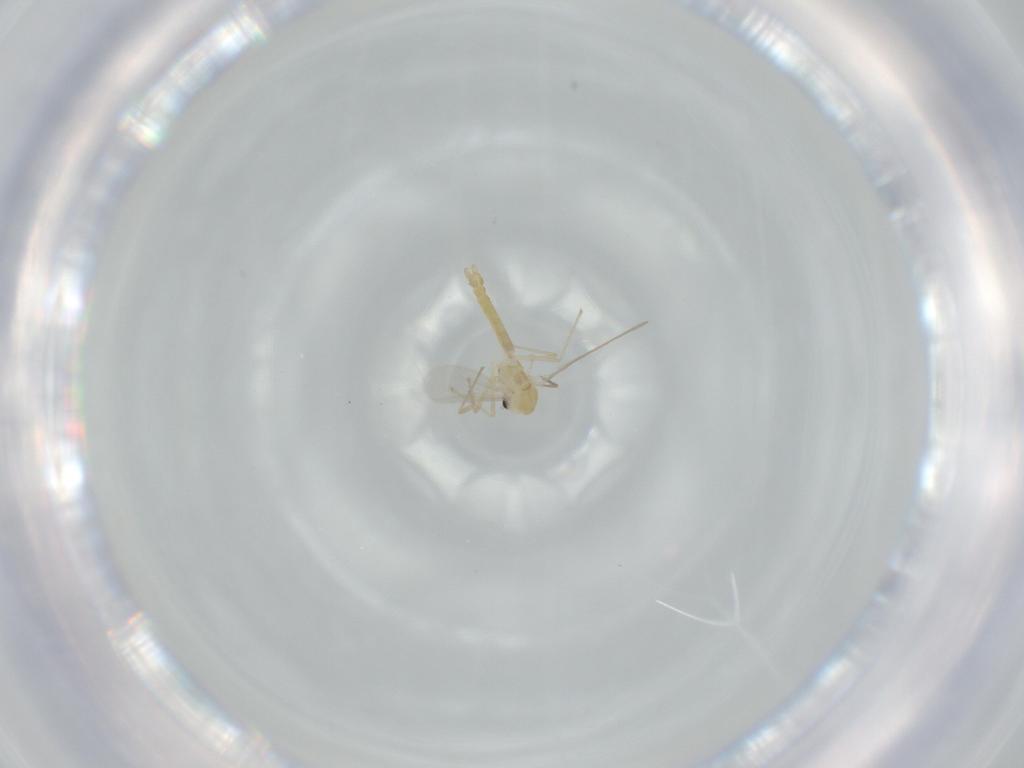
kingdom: Animalia
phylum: Arthropoda
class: Insecta
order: Diptera
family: Chironomidae
